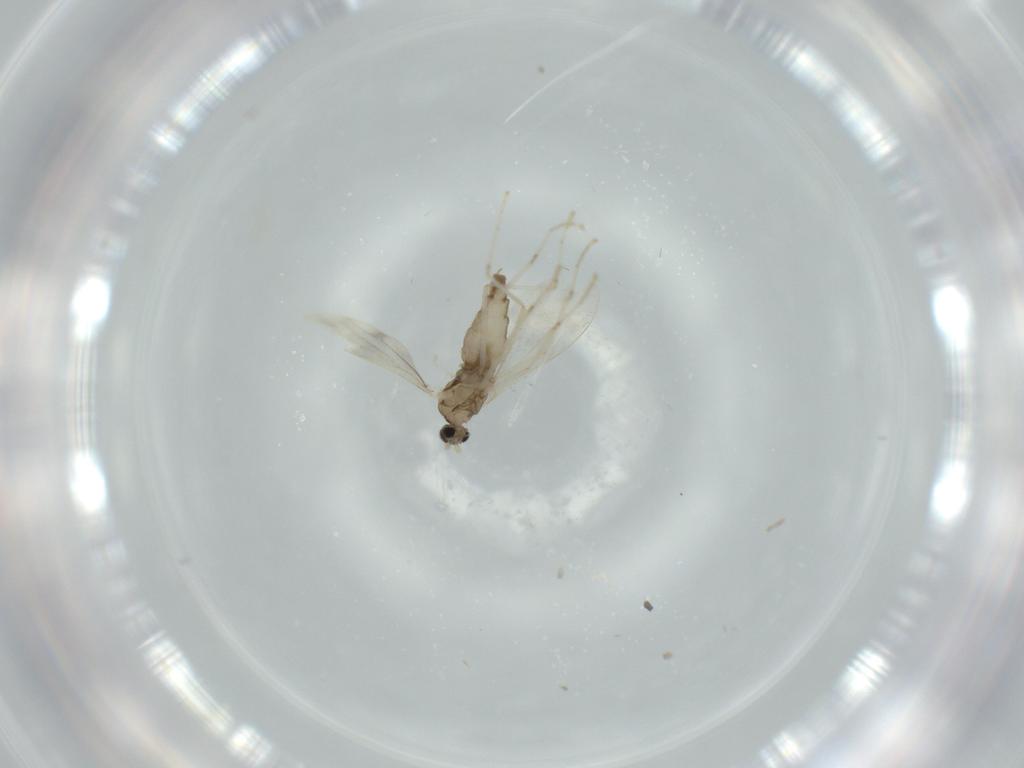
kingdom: Animalia
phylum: Arthropoda
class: Insecta
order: Diptera
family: Cecidomyiidae
